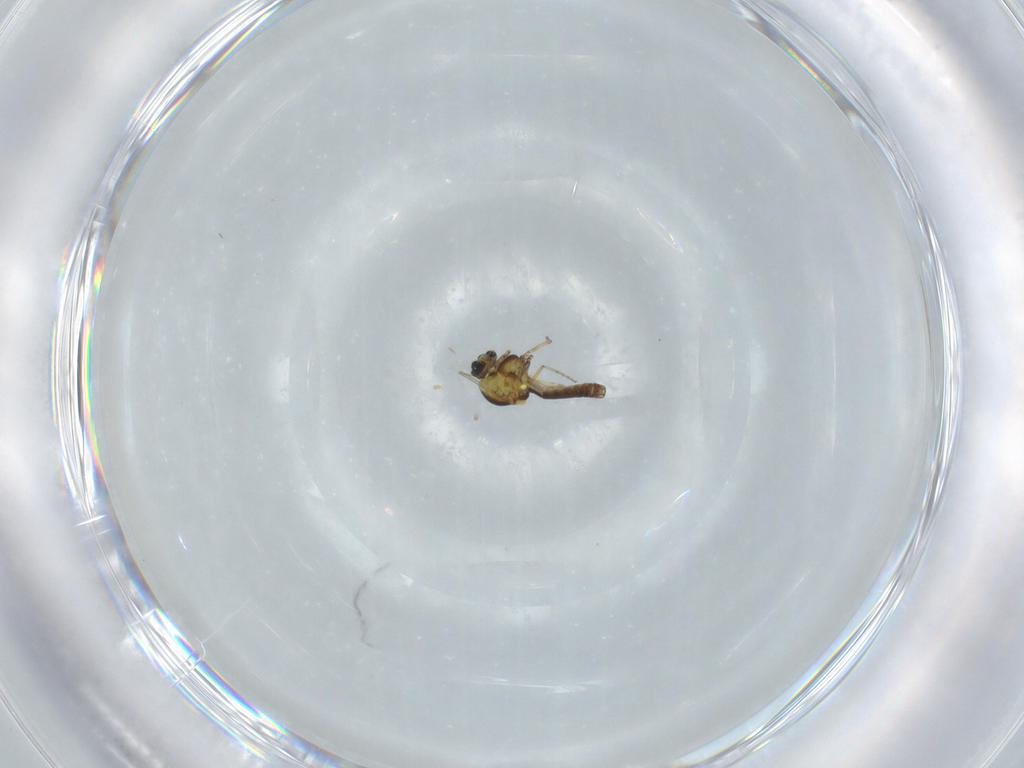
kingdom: Animalia
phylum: Arthropoda
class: Insecta
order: Diptera
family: Ceratopogonidae
